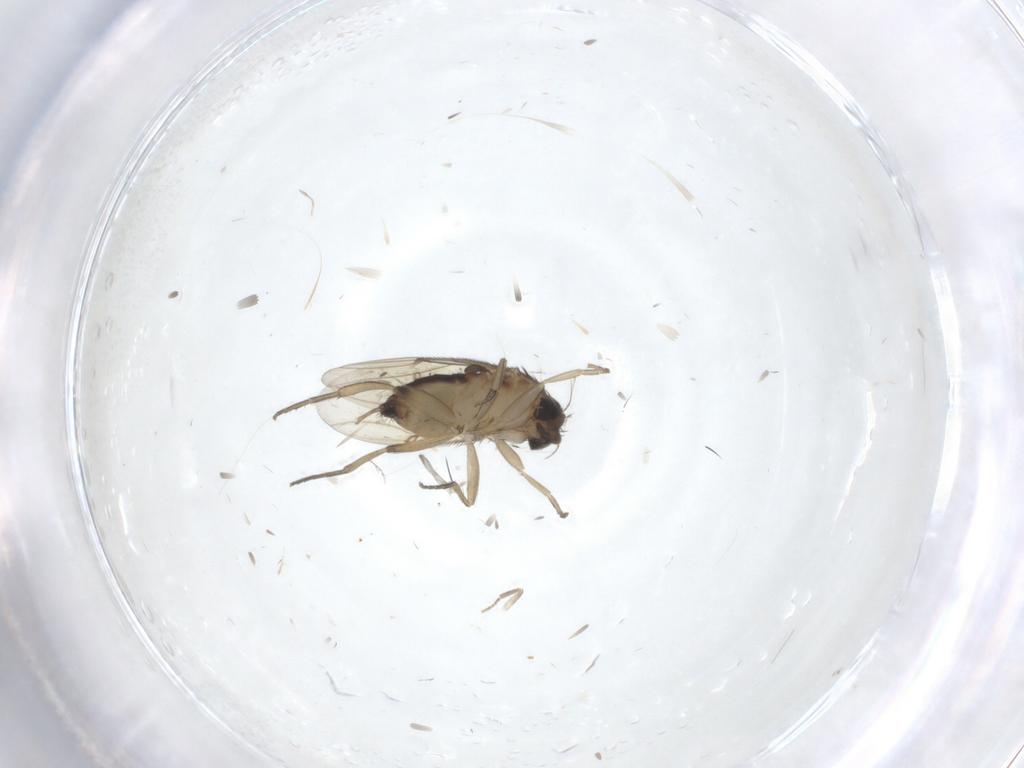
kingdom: Animalia
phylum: Arthropoda
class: Insecta
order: Diptera
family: Phoridae
